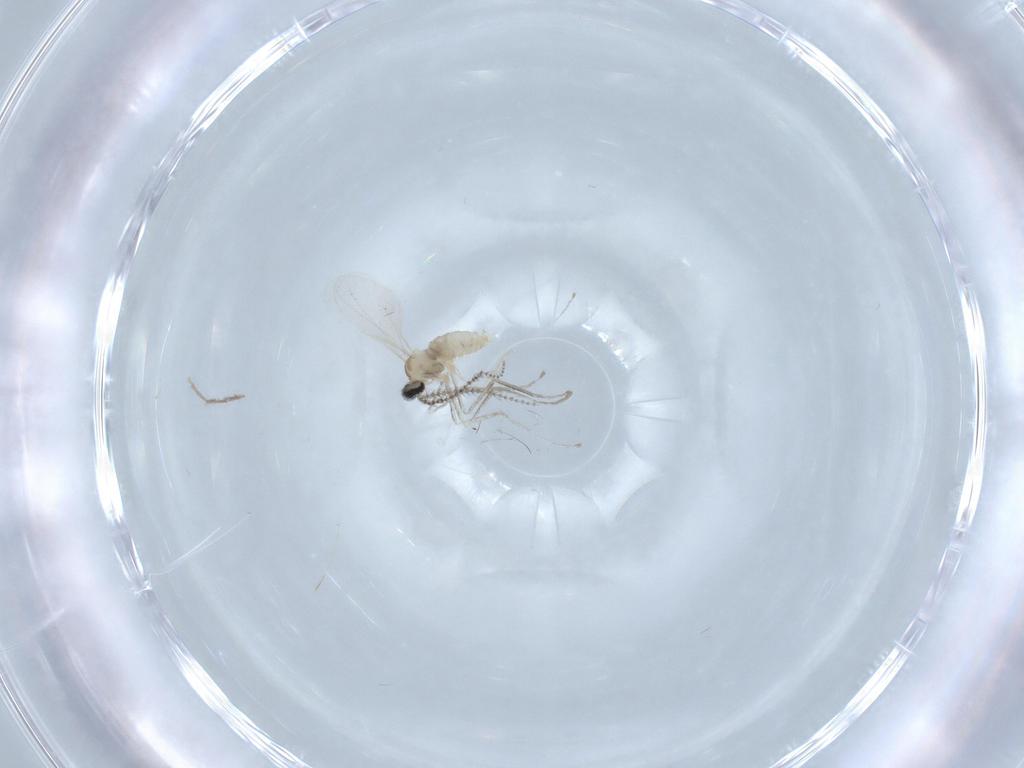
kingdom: Animalia
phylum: Arthropoda
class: Insecta
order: Diptera
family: Chironomidae
